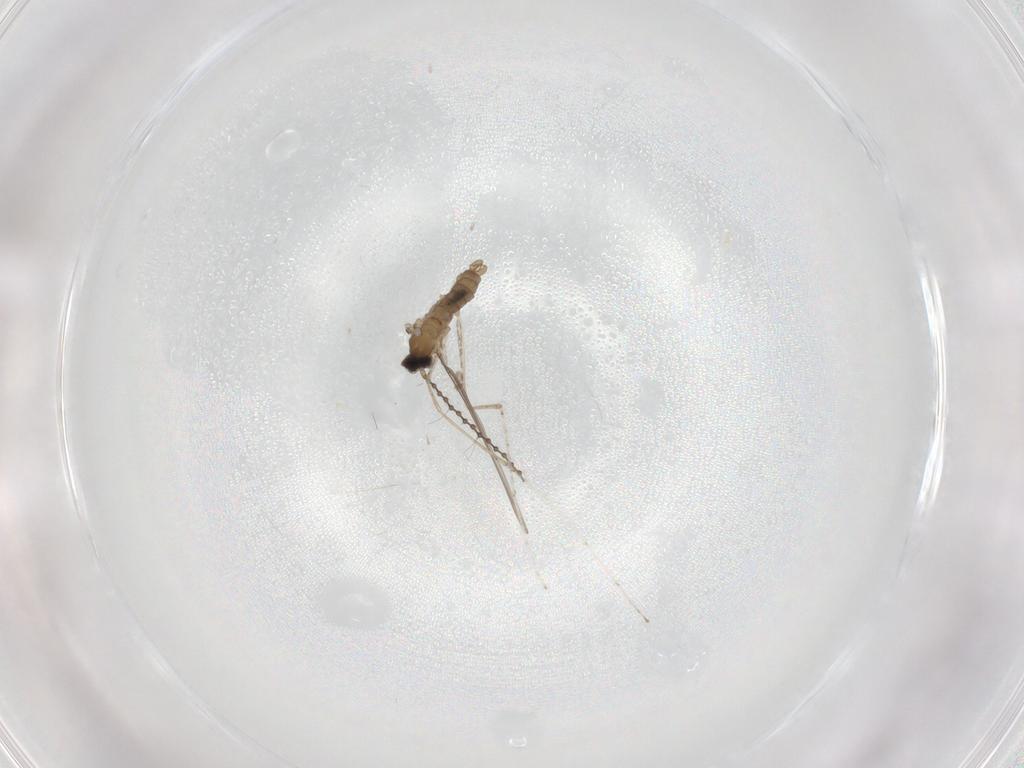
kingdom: Animalia
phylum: Arthropoda
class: Insecta
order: Diptera
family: Cecidomyiidae
